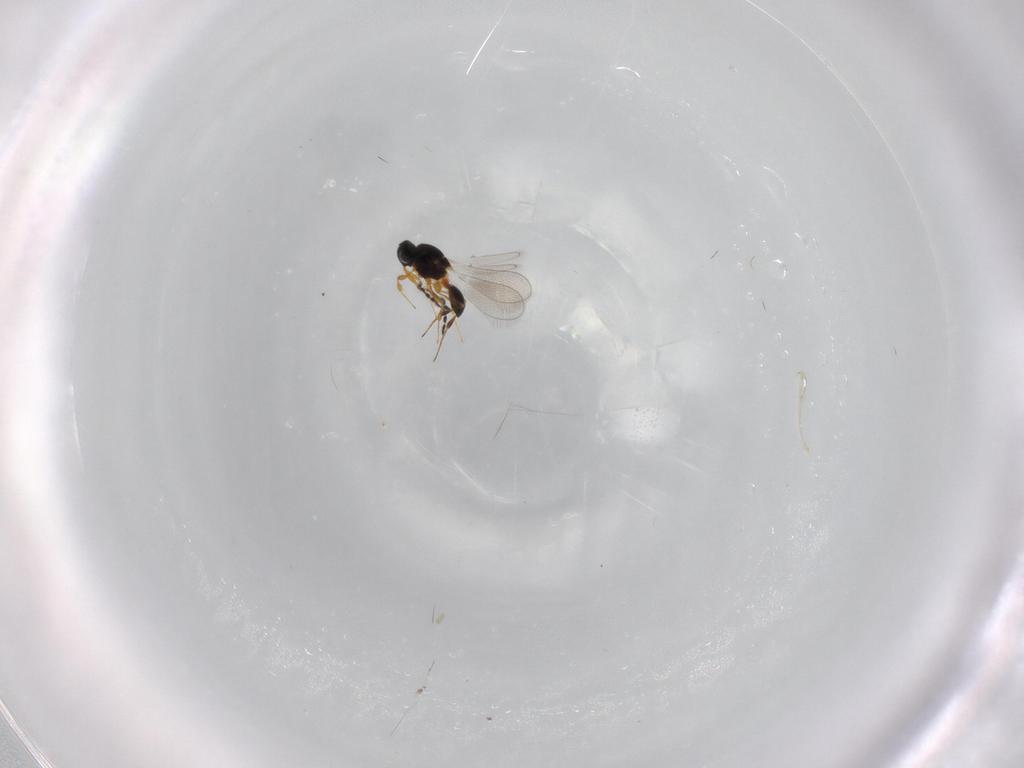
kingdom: Animalia
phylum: Arthropoda
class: Insecta
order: Hymenoptera
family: Platygastridae
